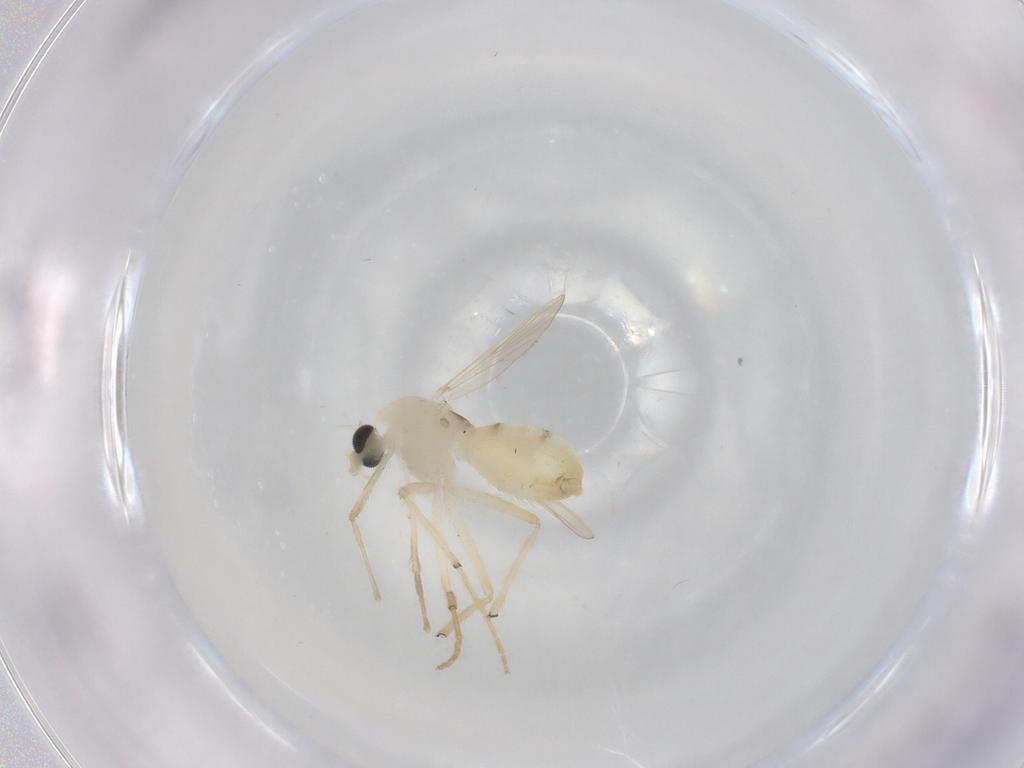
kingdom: Animalia
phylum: Arthropoda
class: Insecta
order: Diptera
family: Chironomidae
